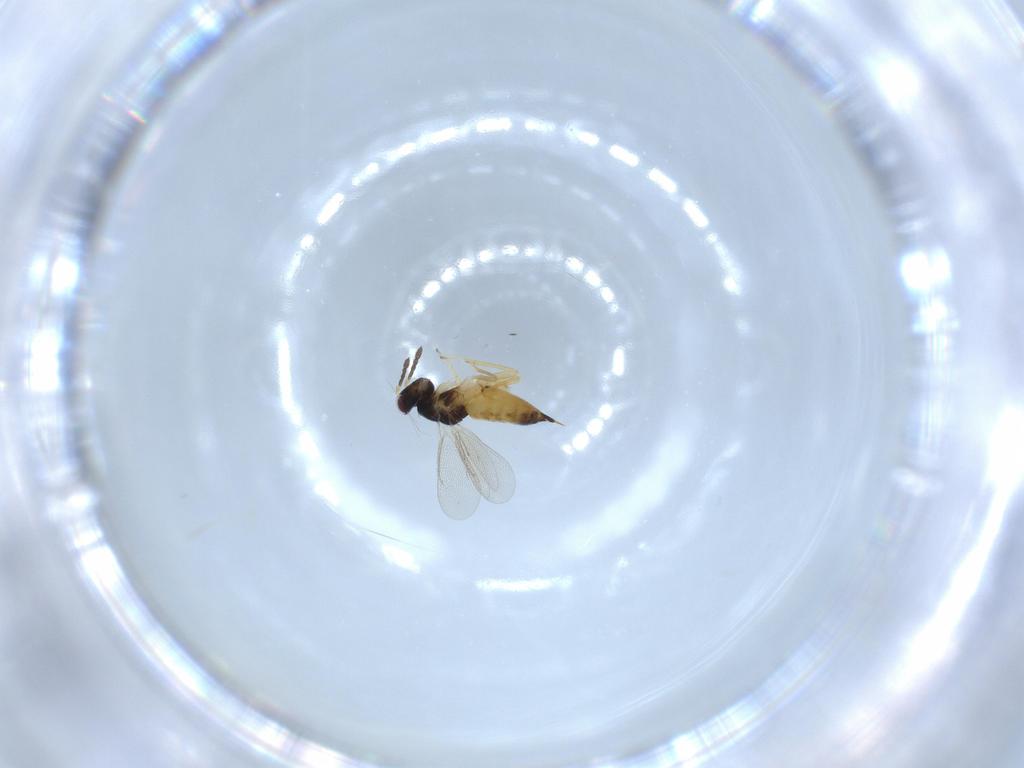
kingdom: Animalia
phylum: Arthropoda
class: Insecta
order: Hymenoptera
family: Eulophidae
